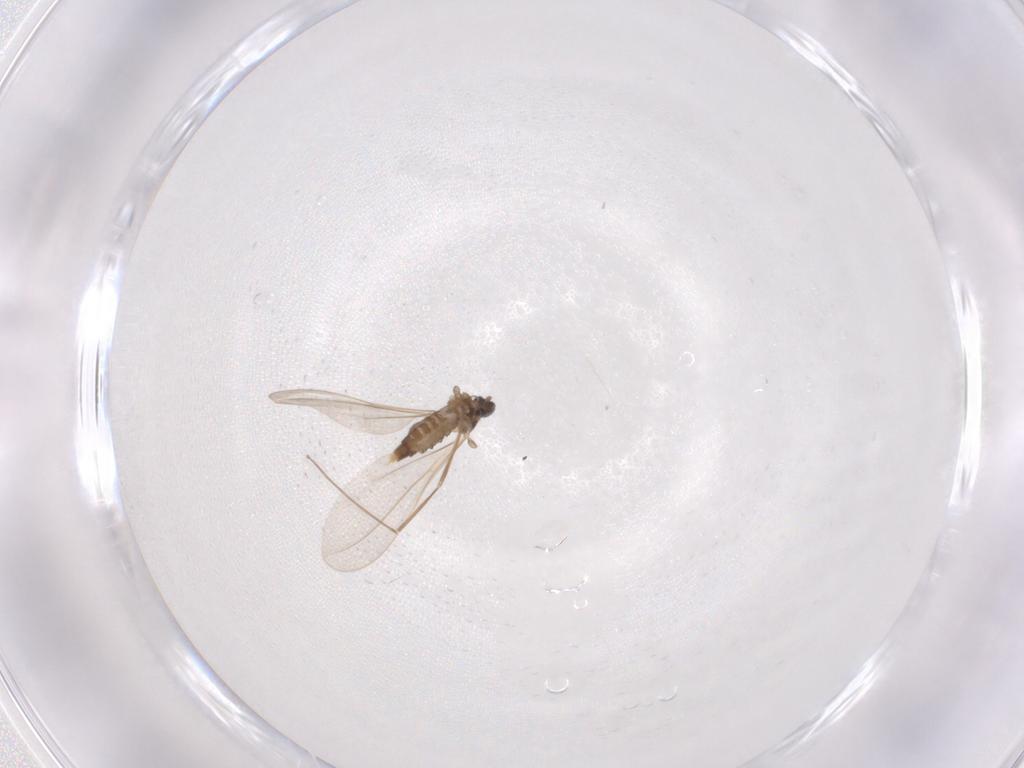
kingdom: Animalia
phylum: Arthropoda
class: Insecta
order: Diptera
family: Cecidomyiidae
